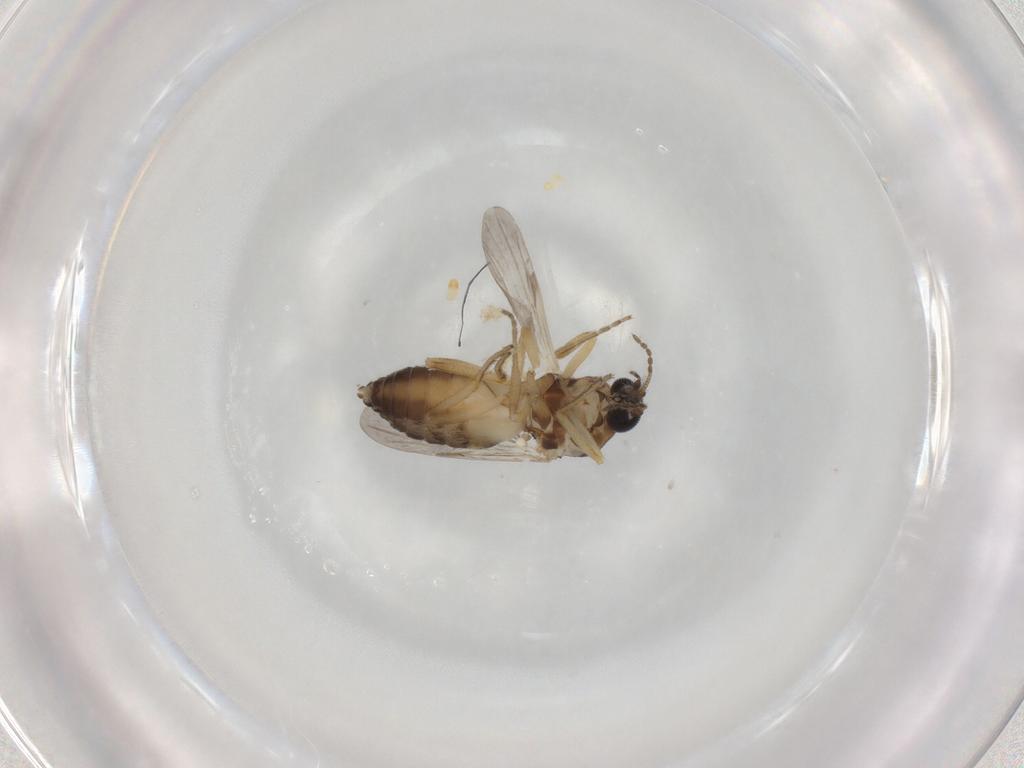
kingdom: Animalia
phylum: Arthropoda
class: Insecta
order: Diptera
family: Ceratopogonidae
